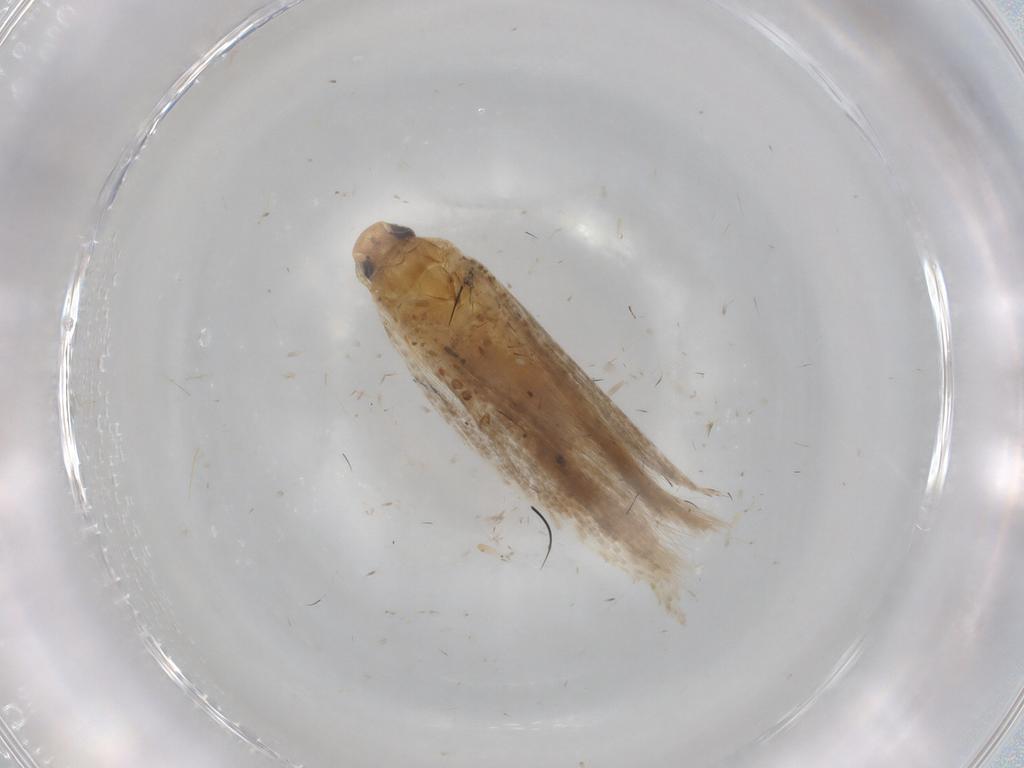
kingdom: Animalia
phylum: Arthropoda
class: Insecta
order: Lepidoptera
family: Gelechiidae
